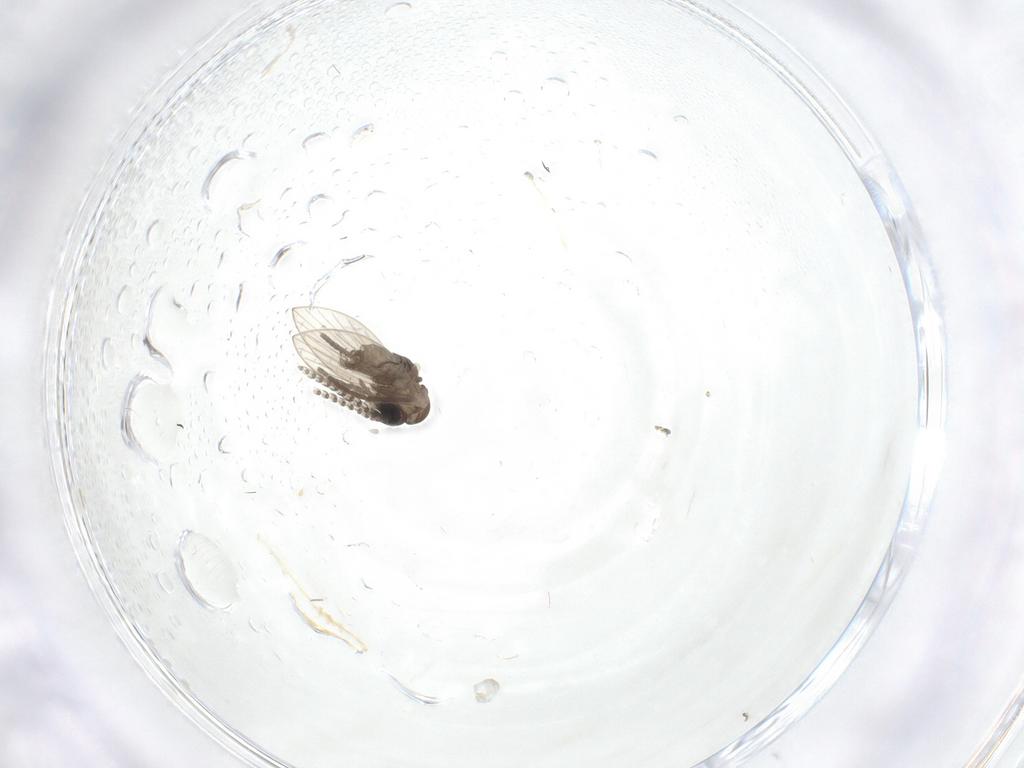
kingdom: Animalia
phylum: Arthropoda
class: Insecta
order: Diptera
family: Psychodidae
